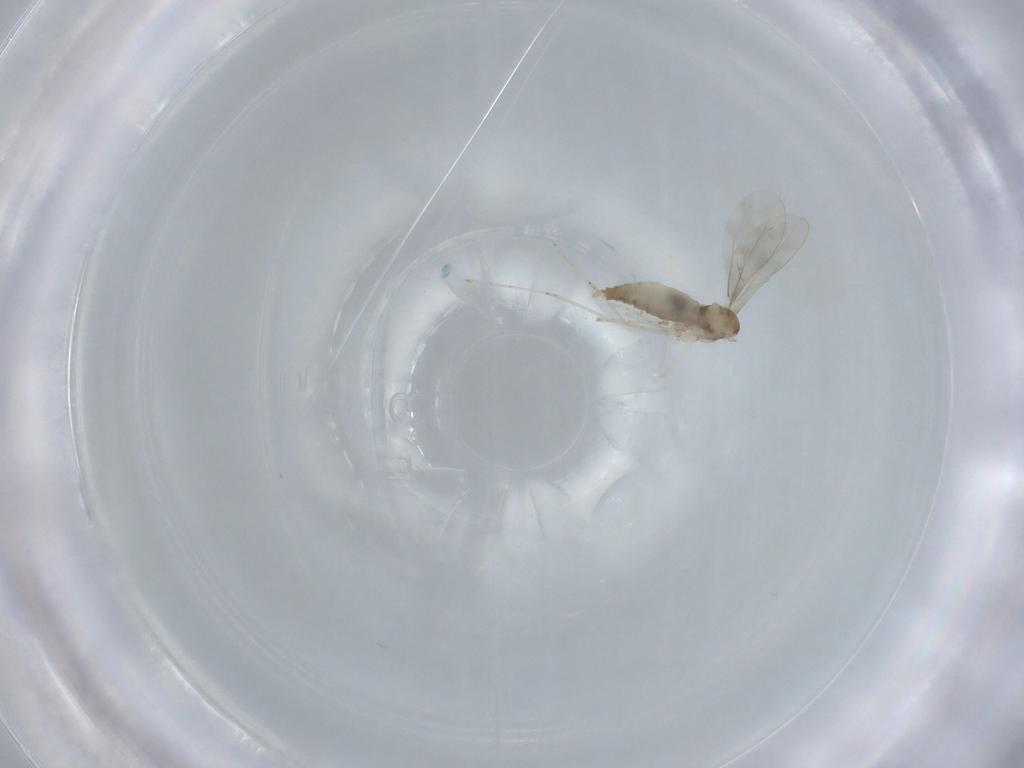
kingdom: Animalia
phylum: Arthropoda
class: Insecta
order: Diptera
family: Cecidomyiidae
